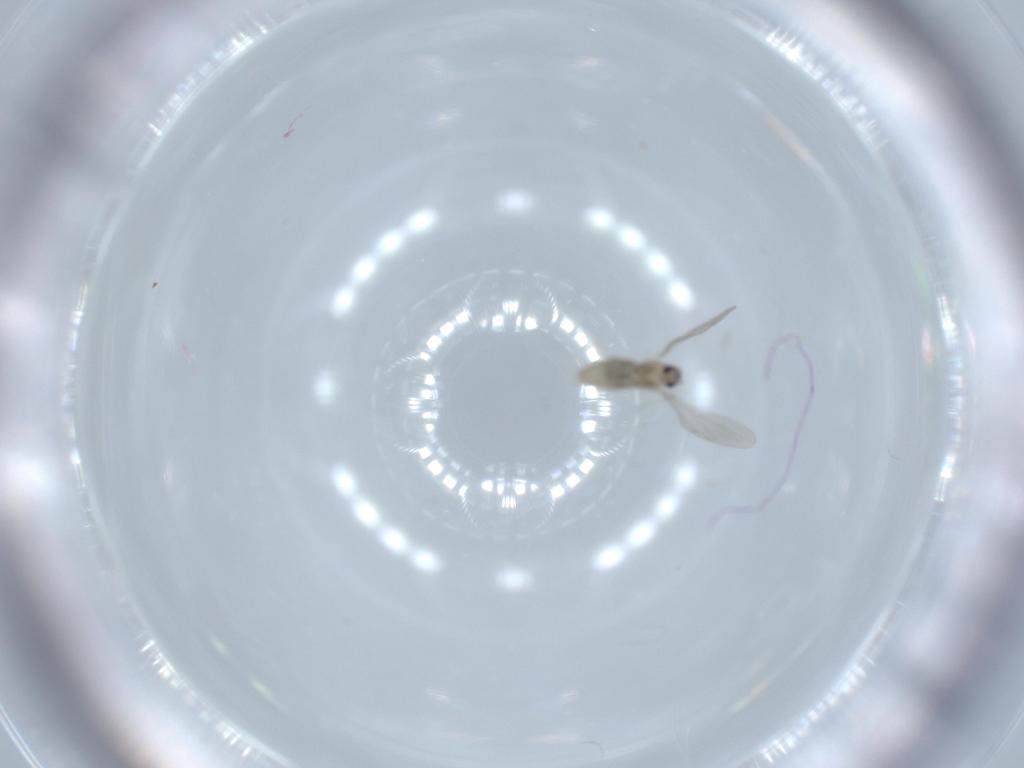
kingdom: Animalia
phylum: Arthropoda
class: Insecta
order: Diptera
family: Cecidomyiidae
